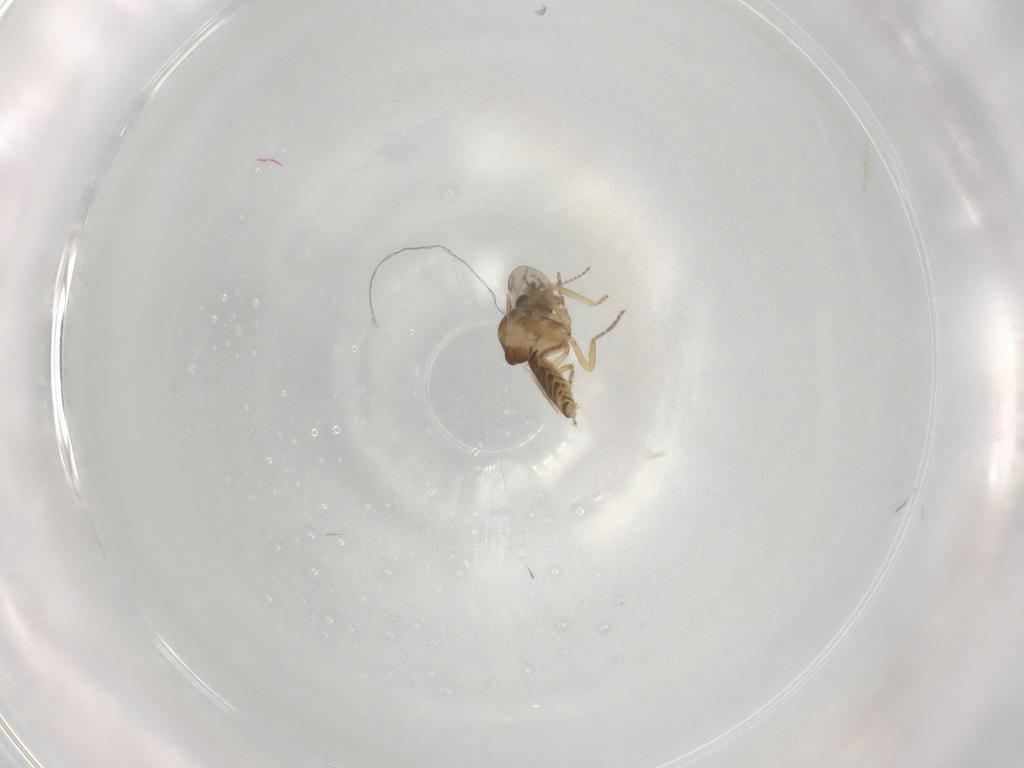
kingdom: Animalia
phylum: Arthropoda
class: Insecta
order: Diptera
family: Ceratopogonidae
